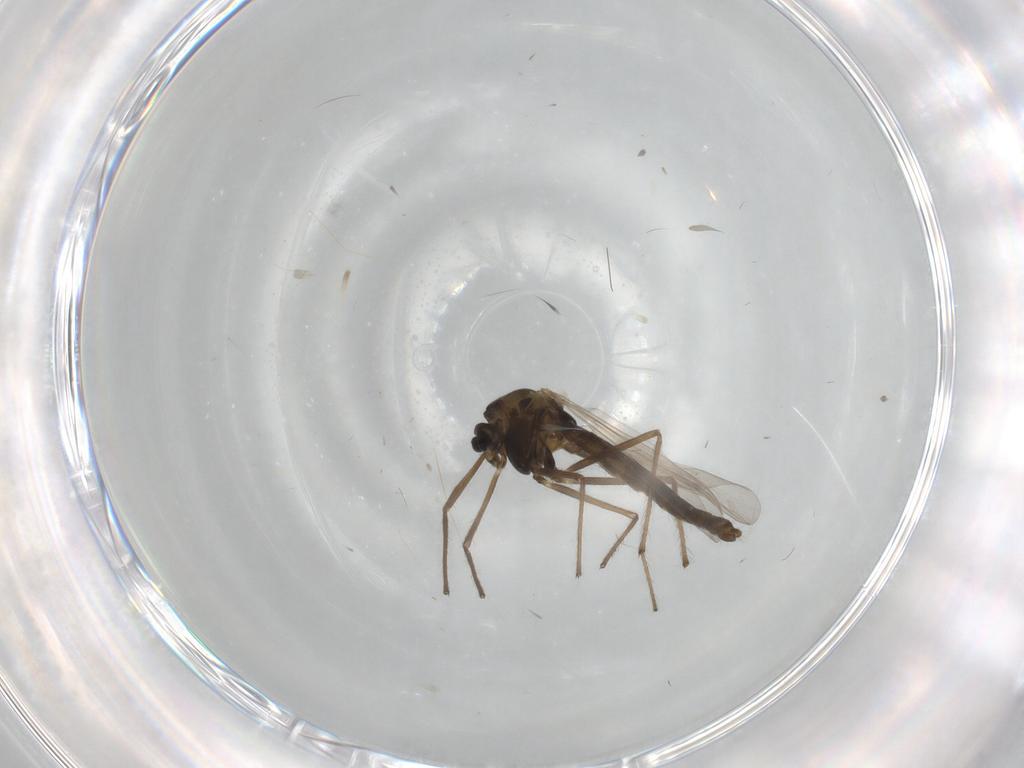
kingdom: Animalia
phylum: Arthropoda
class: Insecta
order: Diptera
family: Chironomidae
